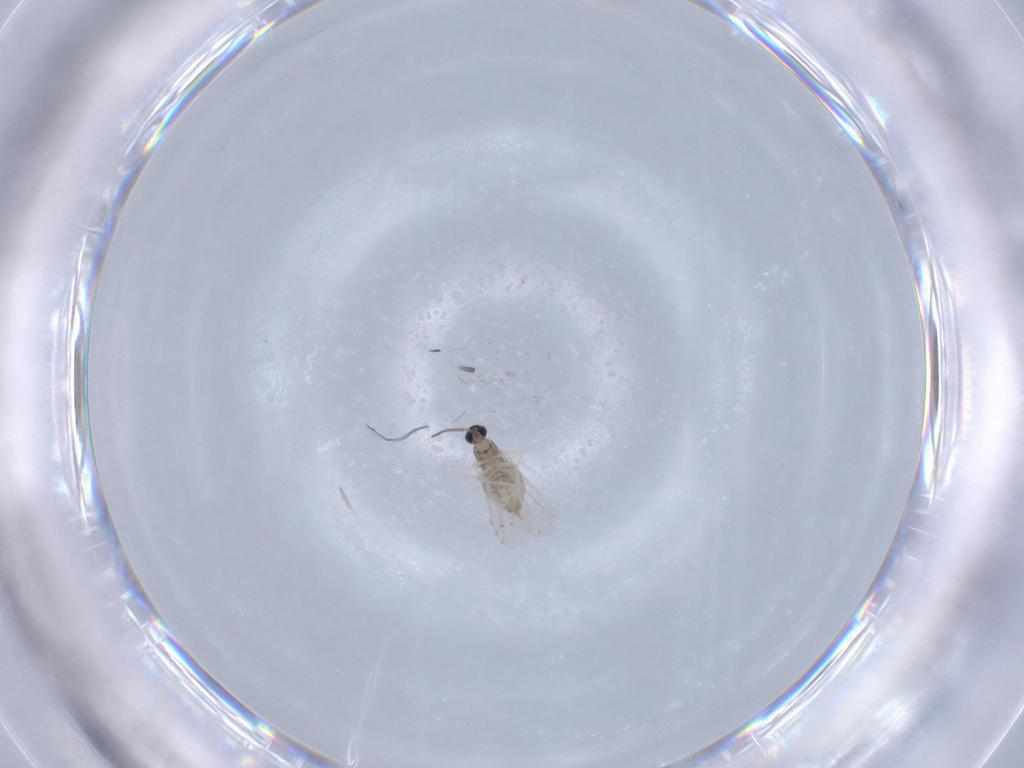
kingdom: Animalia
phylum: Arthropoda
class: Insecta
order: Diptera
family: Cecidomyiidae
